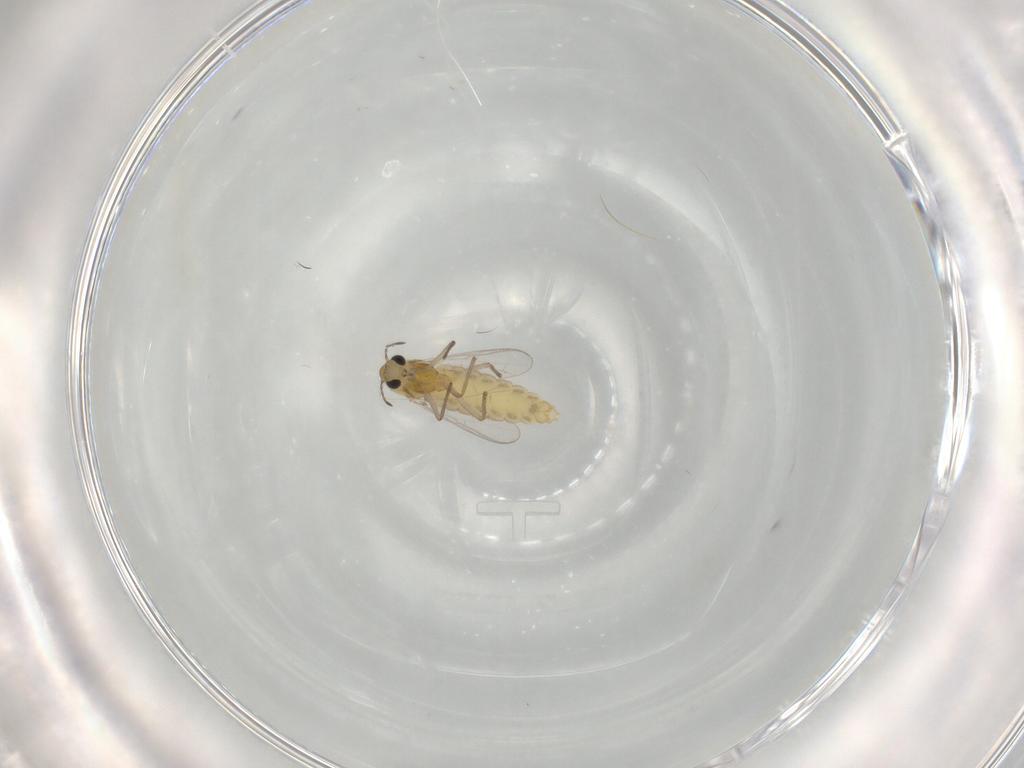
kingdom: Animalia
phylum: Arthropoda
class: Insecta
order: Diptera
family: Chironomidae
